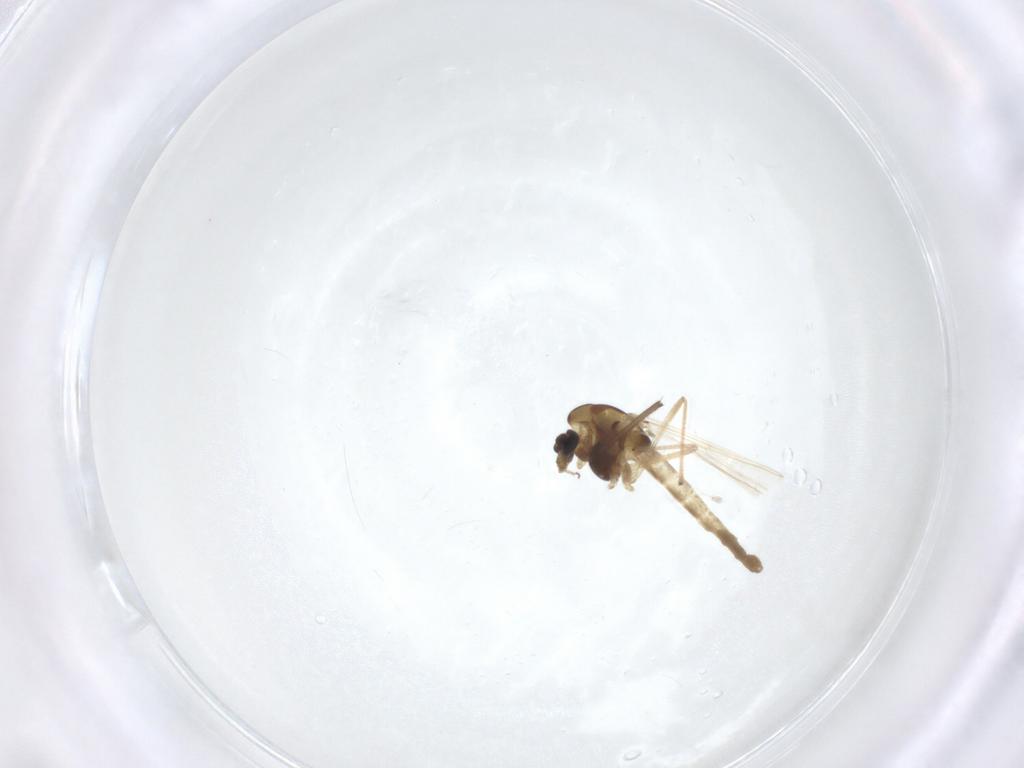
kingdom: Animalia
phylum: Arthropoda
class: Insecta
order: Diptera
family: Chironomidae
